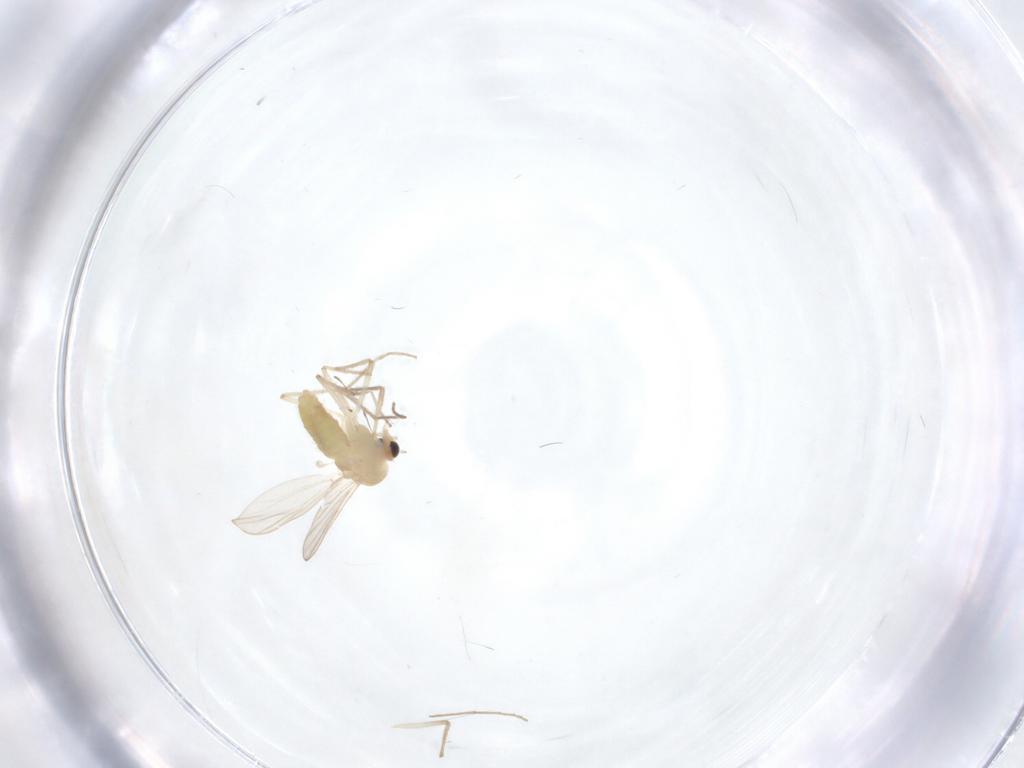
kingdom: Animalia
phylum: Arthropoda
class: Insecta
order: Diptera
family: Chironomidae
